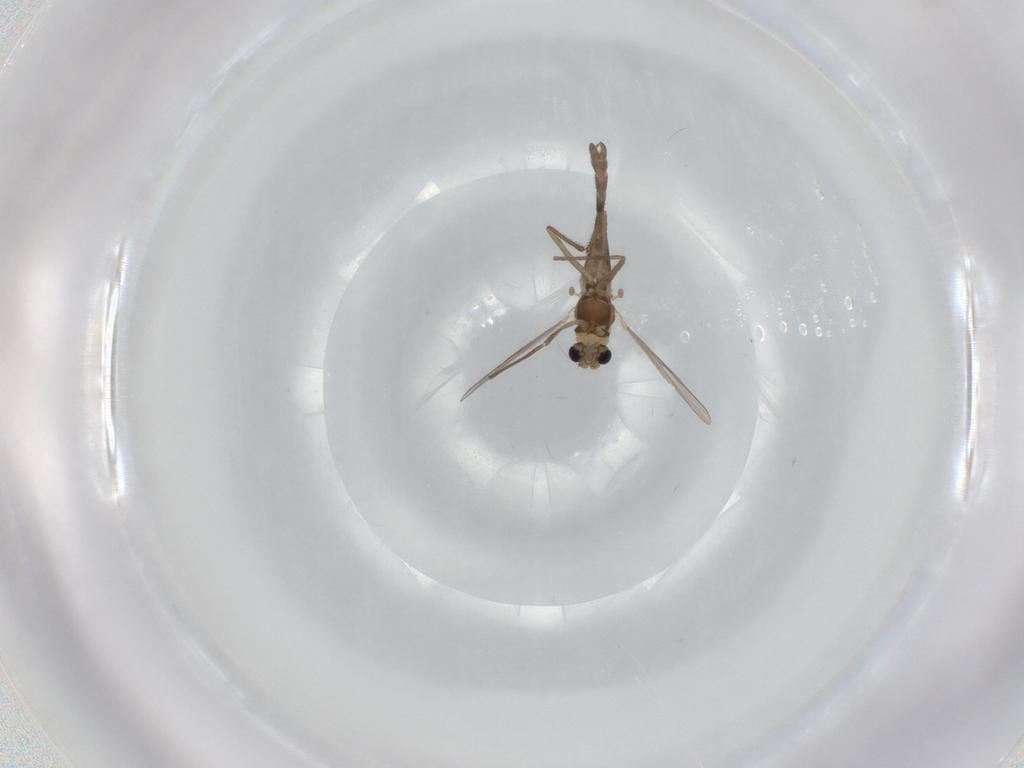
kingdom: Animalia
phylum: Arthropoda
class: Insecta
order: Diptera
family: Chironomidae
